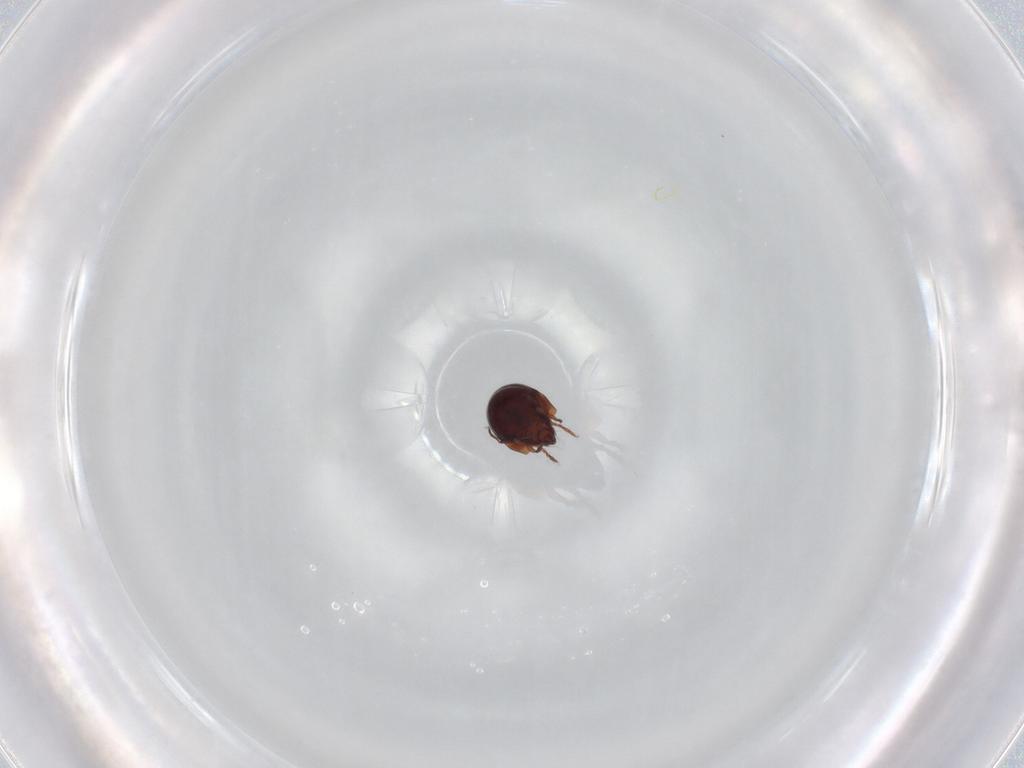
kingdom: Animalia
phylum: Arthropoda
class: Arachnida
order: Sarcoptiformes
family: Humerobatidae
